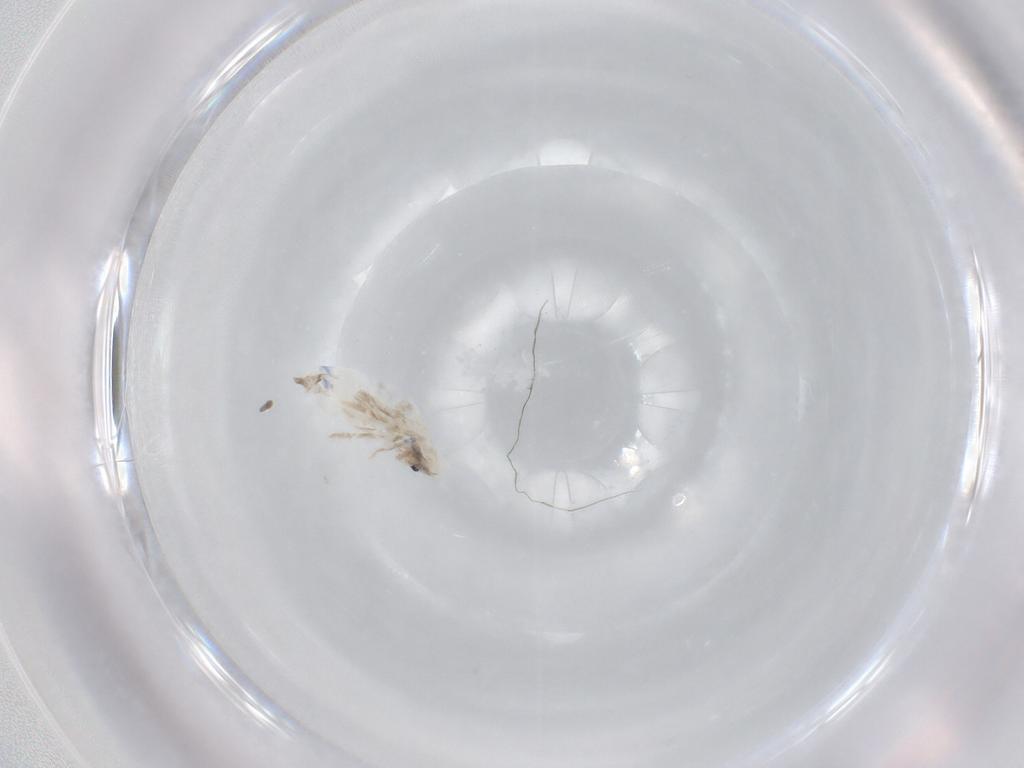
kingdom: Animalia
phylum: Arthropoda
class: Collembola
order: Entomobryomorpha
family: Entomobryidae
